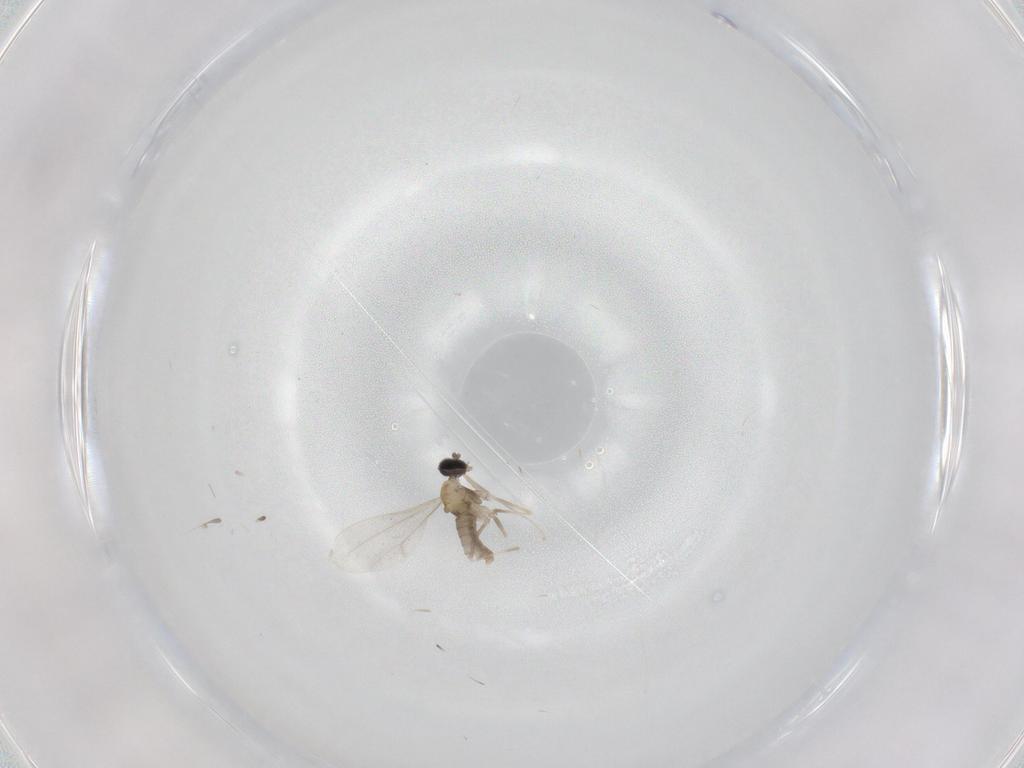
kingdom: Animalia
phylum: Arthropoda
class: Insecta
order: Diptera
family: Cecidomyiidae
